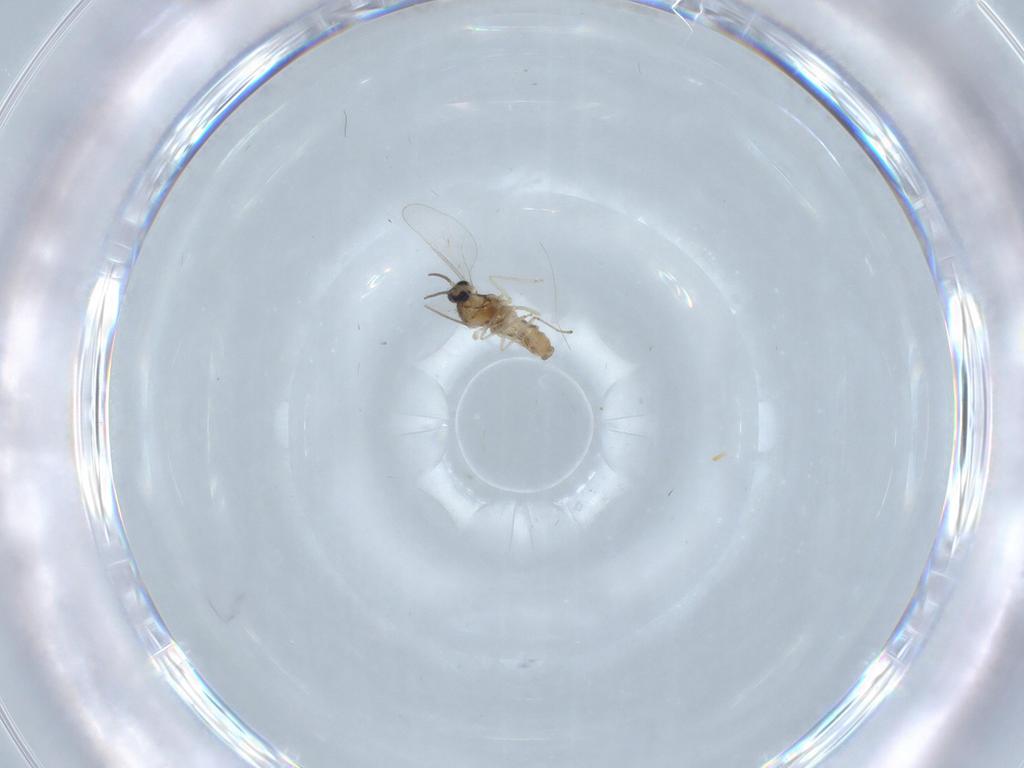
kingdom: Animalia
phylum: Arthropoda
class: Insecta
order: Diptera
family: Cecidomyiidae
